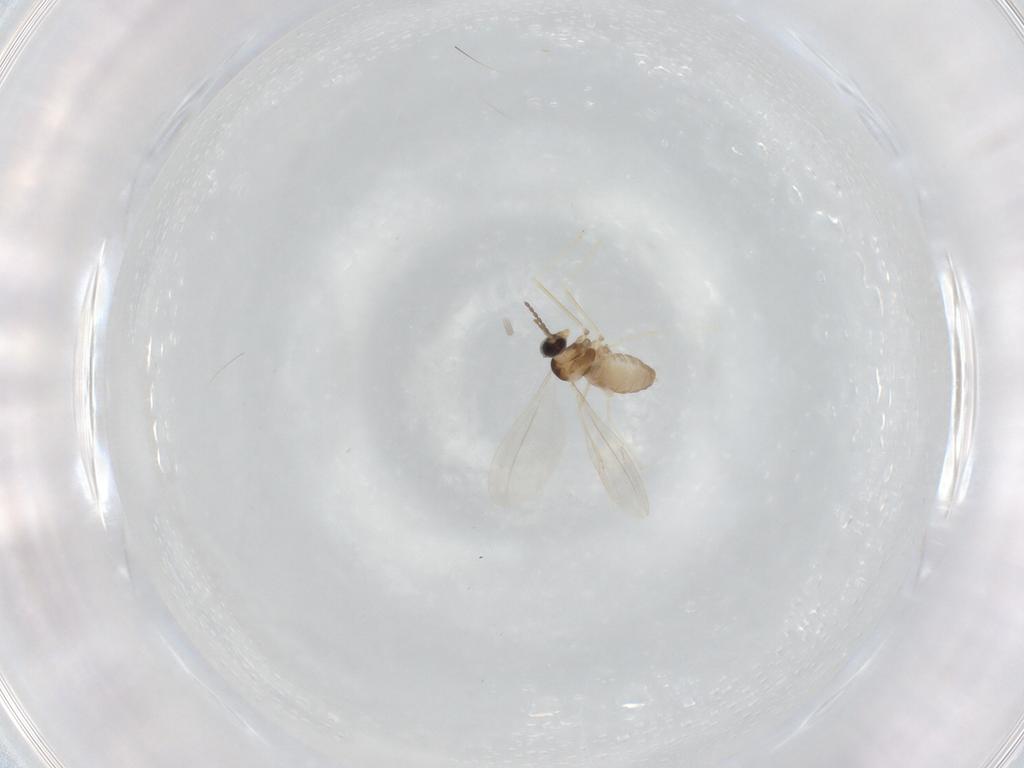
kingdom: Animalia
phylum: Arthropoda
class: Insecta
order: Diptera
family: Cecidomyiidae
